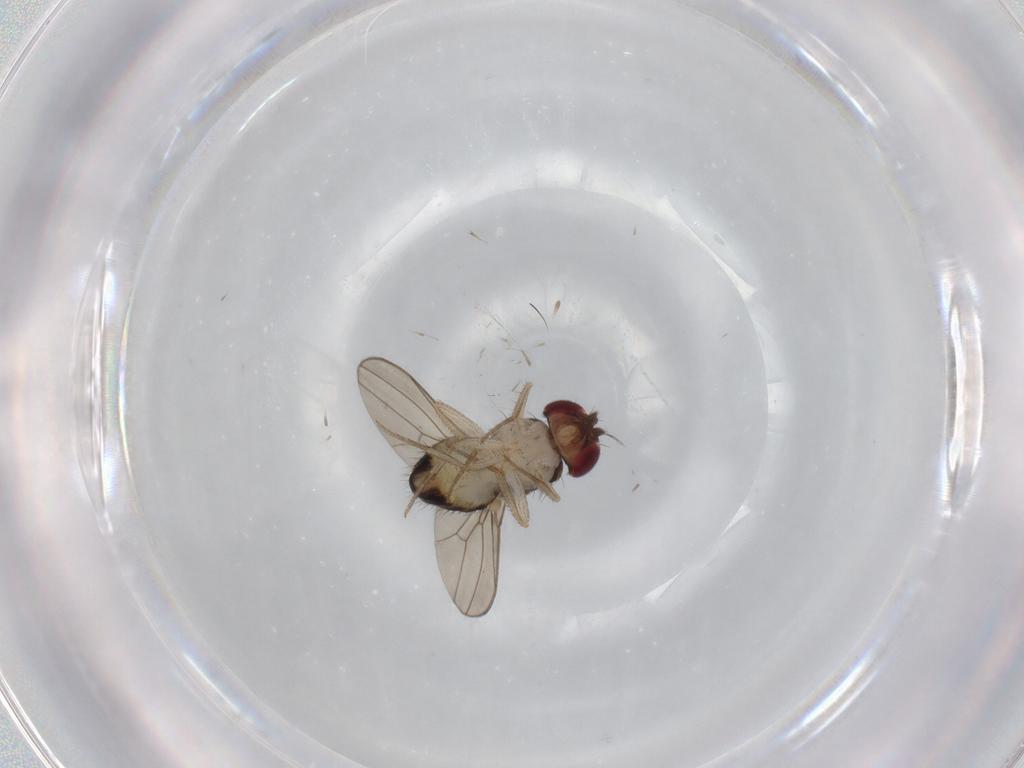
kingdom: Animalia
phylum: Arthropoda
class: Insecta
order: Diptera
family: Drosophilidae
